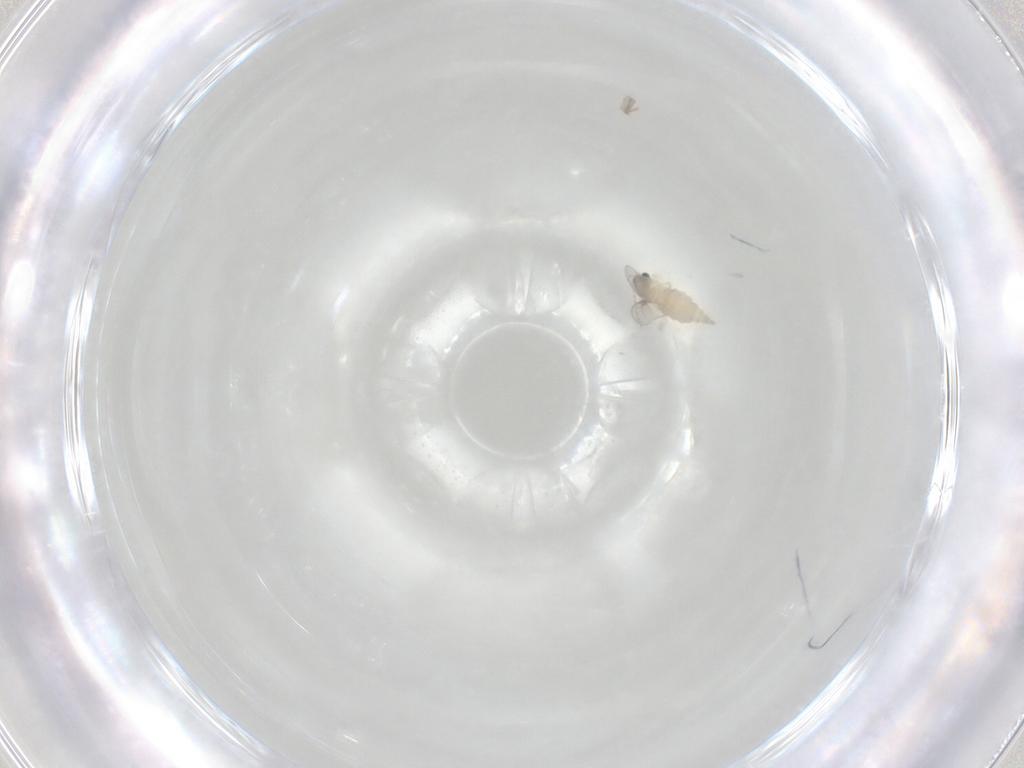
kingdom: Animalia
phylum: Arthropoda
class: Insecta
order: Diptera
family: Cecidomyiidae
